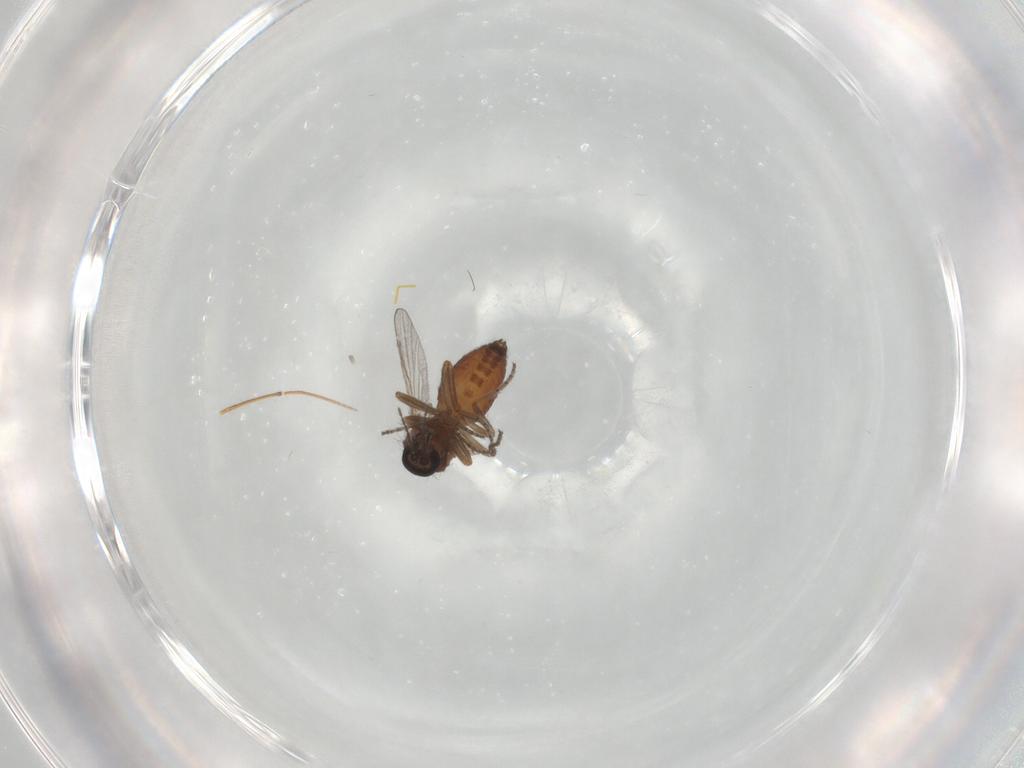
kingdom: Animalia
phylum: Arthropoda
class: Insecta
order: Diptera
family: Ceratopogonidae
